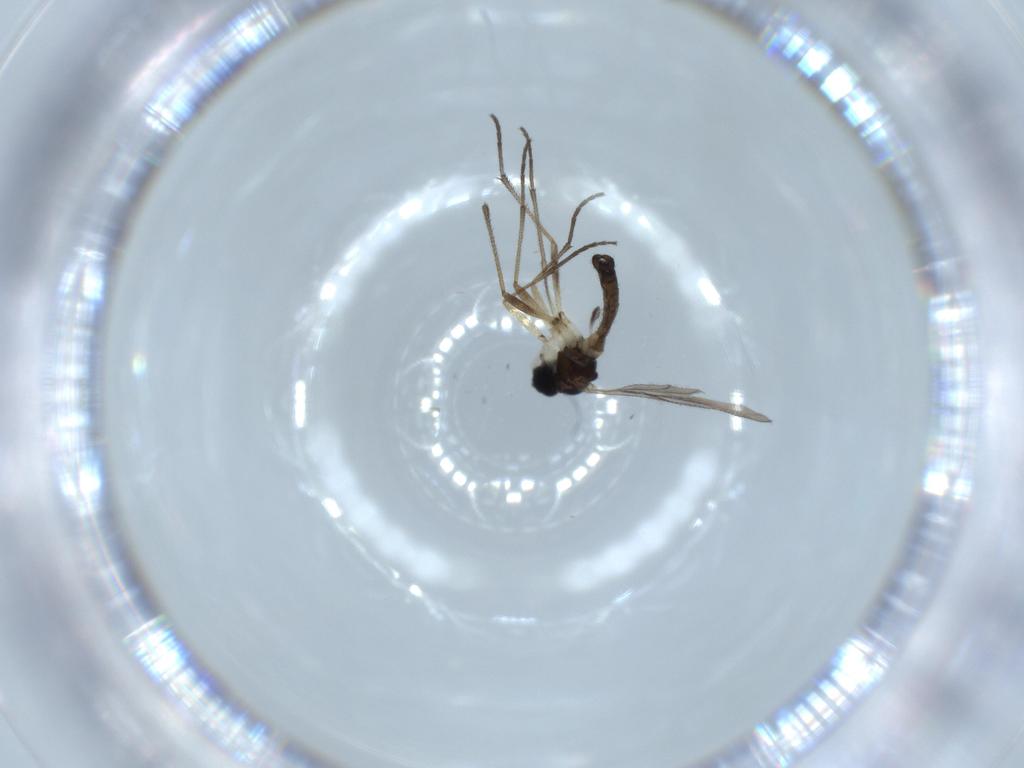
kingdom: Animalia
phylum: Arthropoda
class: Insecta
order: Diptera
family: Sciaridae
